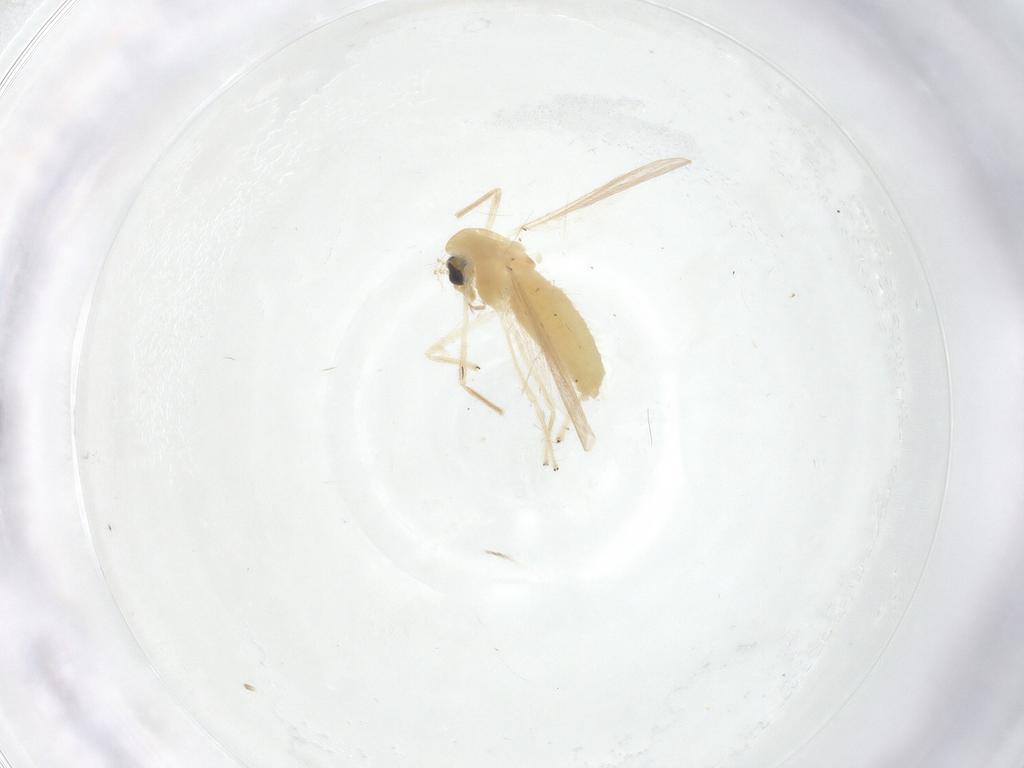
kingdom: Animalia
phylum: Arthropoda
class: Insecta
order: Diptera
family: Chironomidae
